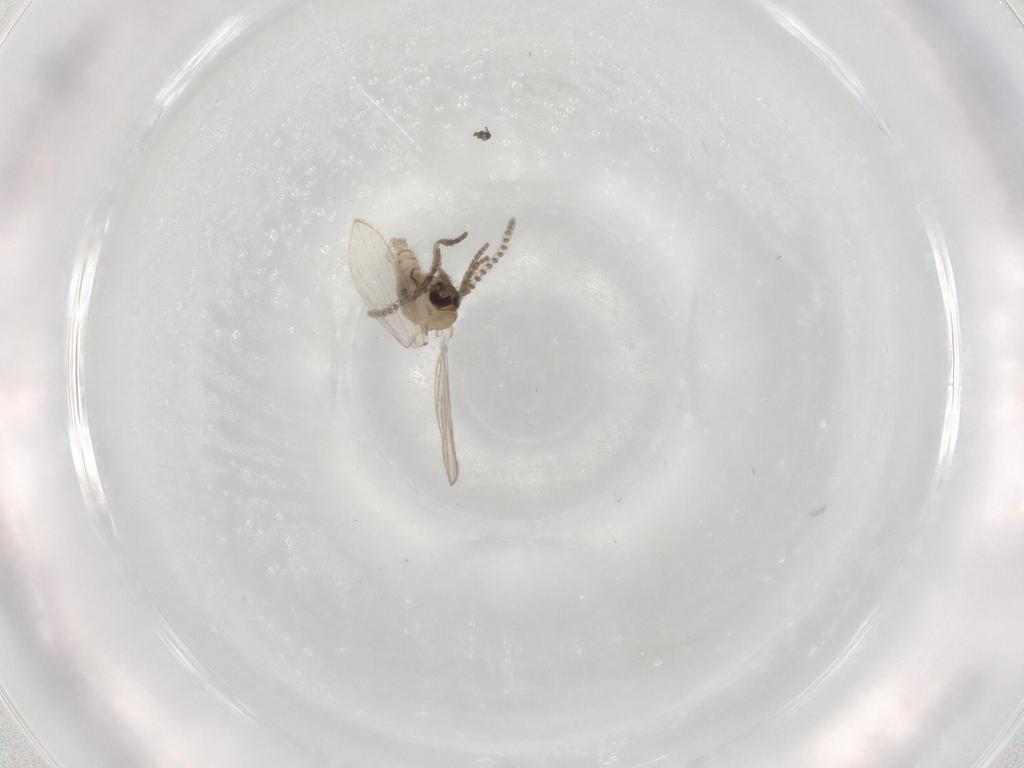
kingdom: Animalia
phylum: Arthropoda
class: Insecta
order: Diptera
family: Psychodidae
